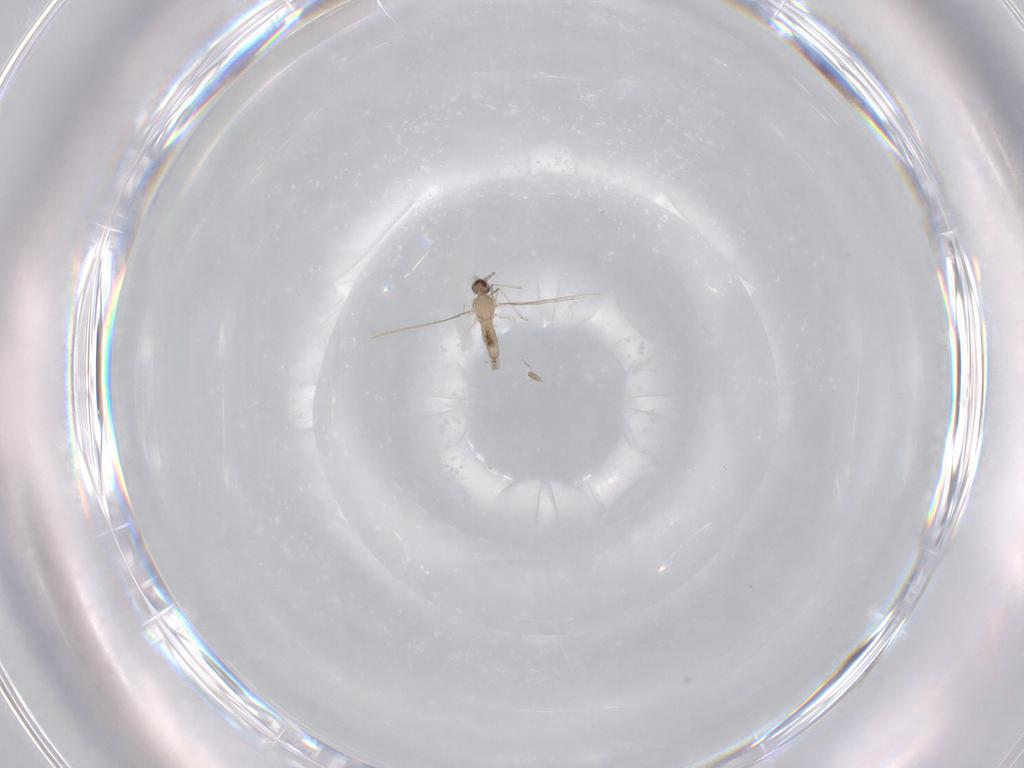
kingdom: Animalia
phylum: Arthropoda
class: Insecta
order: Diptera
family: Cecidomyiidae
